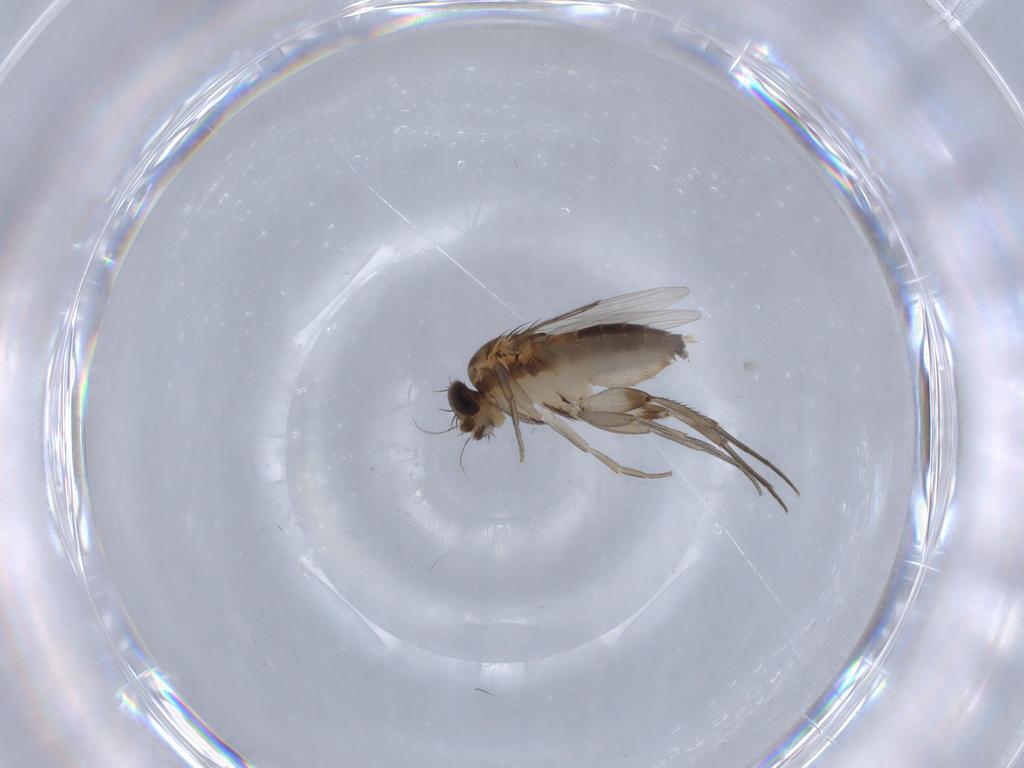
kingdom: Animalia
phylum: Arthropoda
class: Insecta
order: Diptera
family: Phoridae
